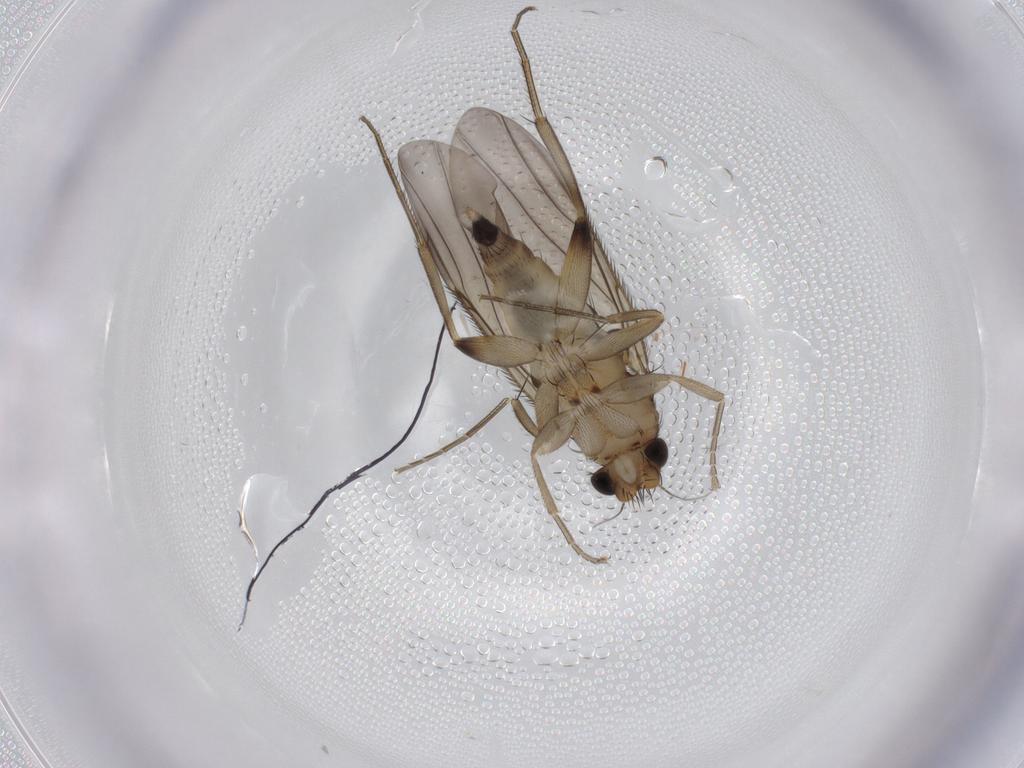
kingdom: Animalia
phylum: Arthropoda
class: Insecta
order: Diptera
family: Phoridae
